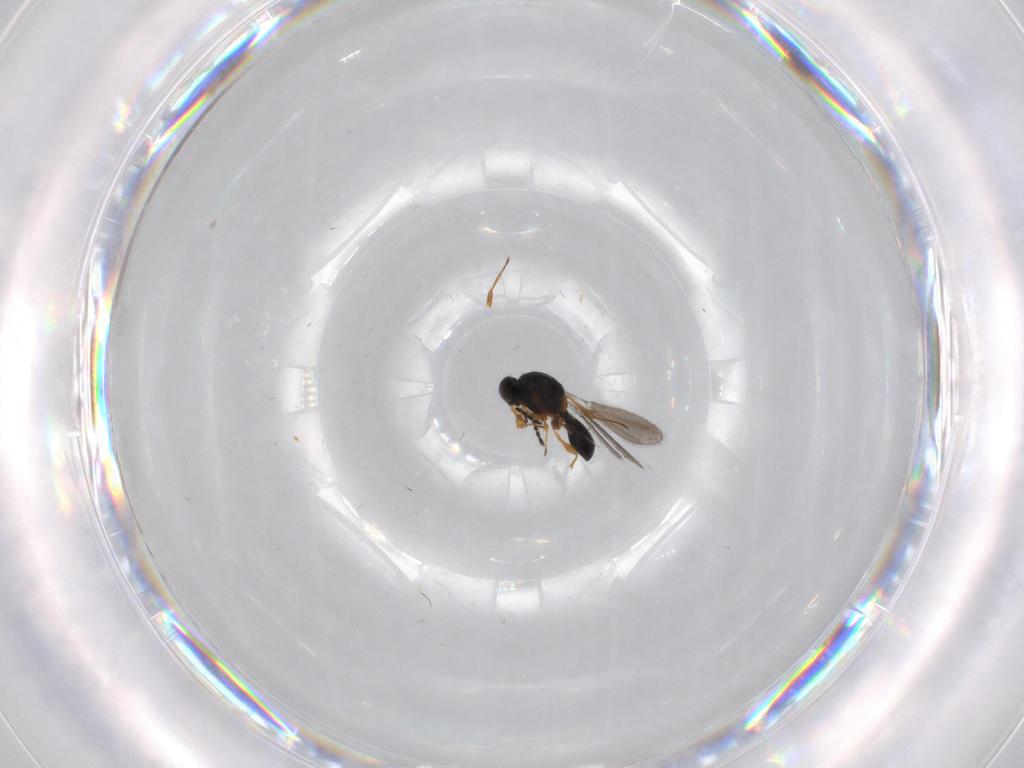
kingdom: Animalia
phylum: Arthropoda
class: Insecta
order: Hymenoptera
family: Platygastridae
